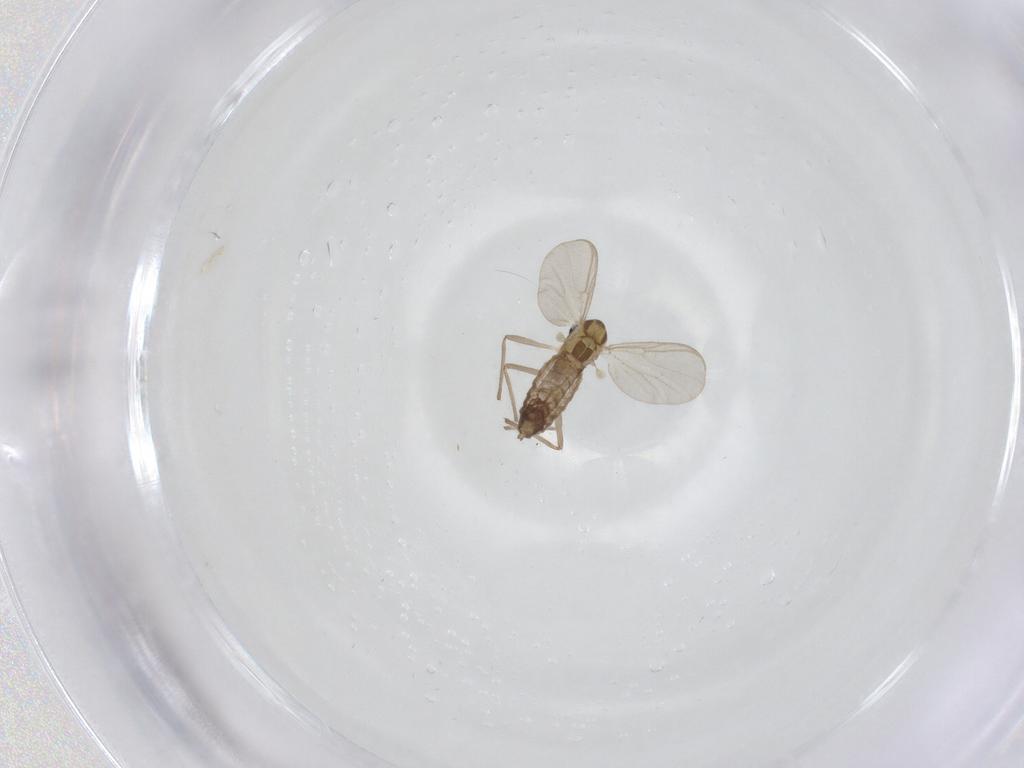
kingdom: Animalia
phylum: Arthropoda
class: Insecta
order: Diptera
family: Chironomidae
